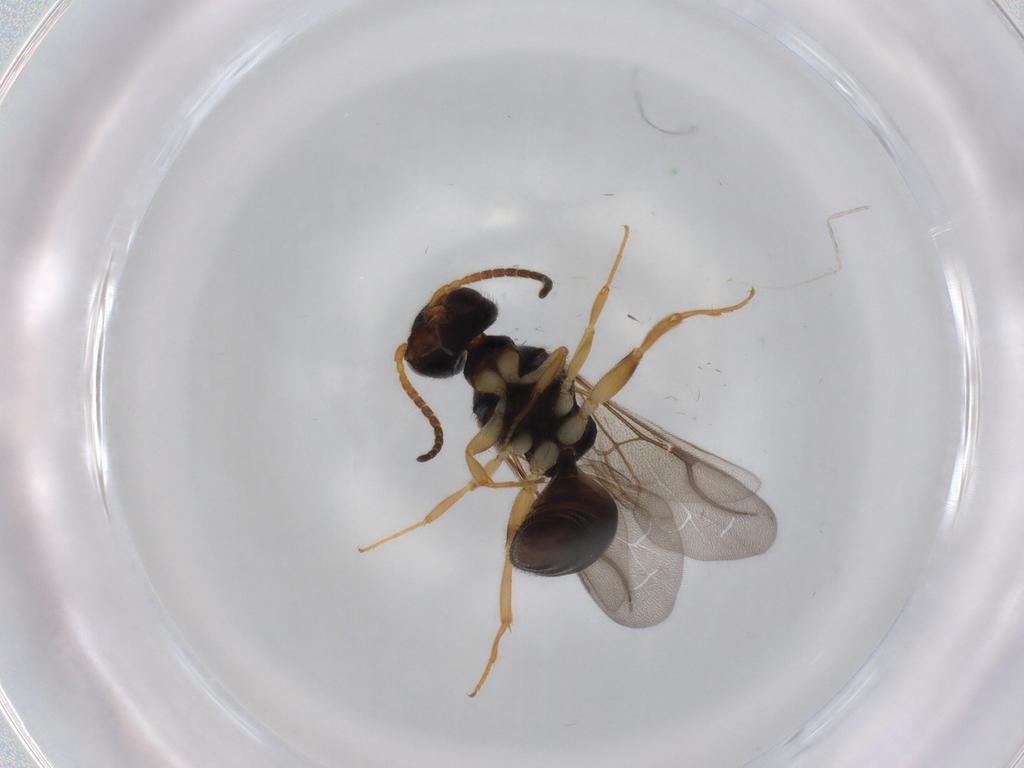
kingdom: Animalia
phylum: Arthropoda
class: Insecta
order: Hymenoptera
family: Bethylidae
